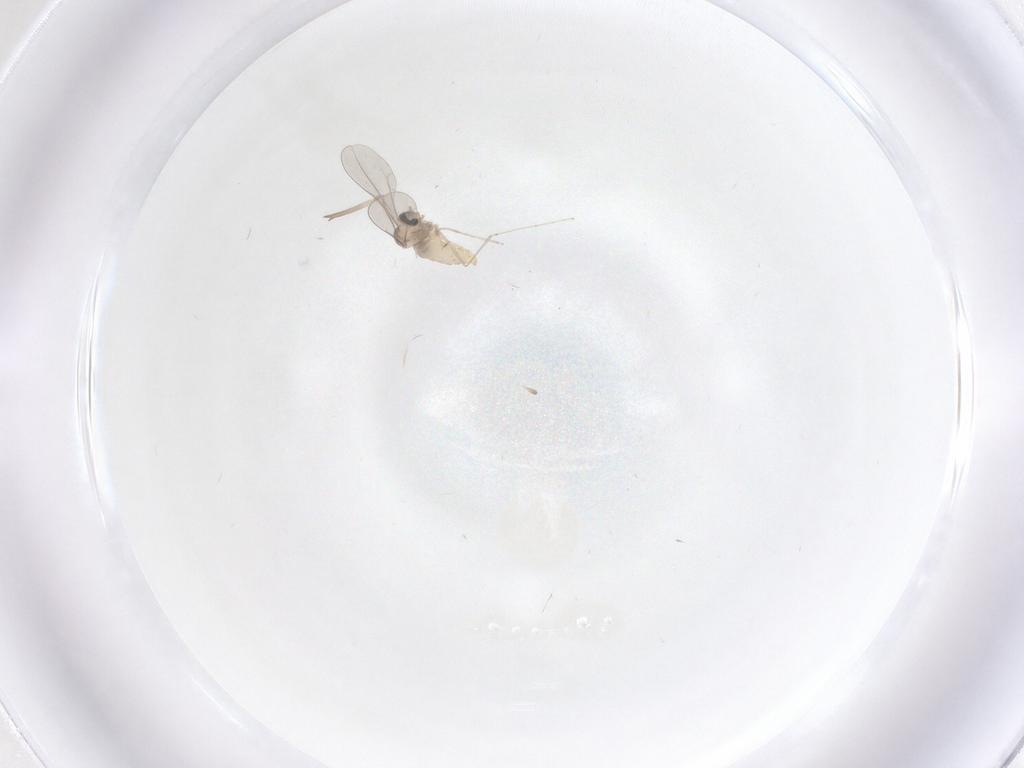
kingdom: Animalia
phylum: Arthropoda
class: Insecta
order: Diptera
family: Cecidomyiidae
